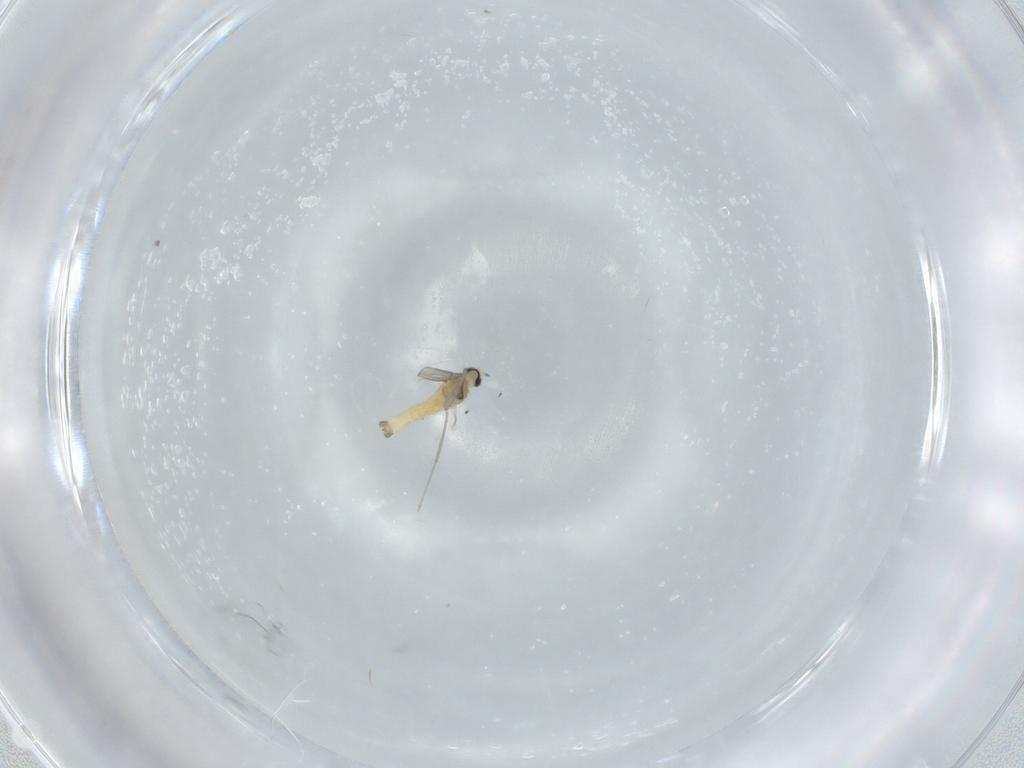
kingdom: Animalia
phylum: Arthropoda
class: Insecta
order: Diptera
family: Cecidomyiidae
